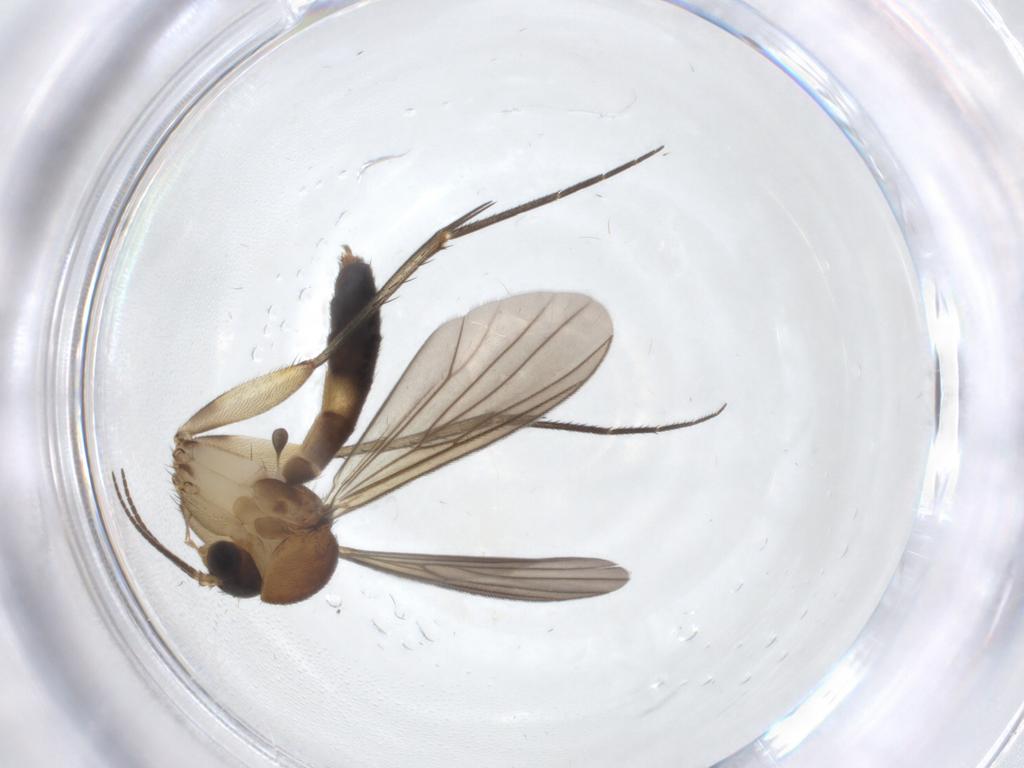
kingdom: Animalia
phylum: Arthropoda
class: Insecta
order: Diptera
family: Mycetophilidae
